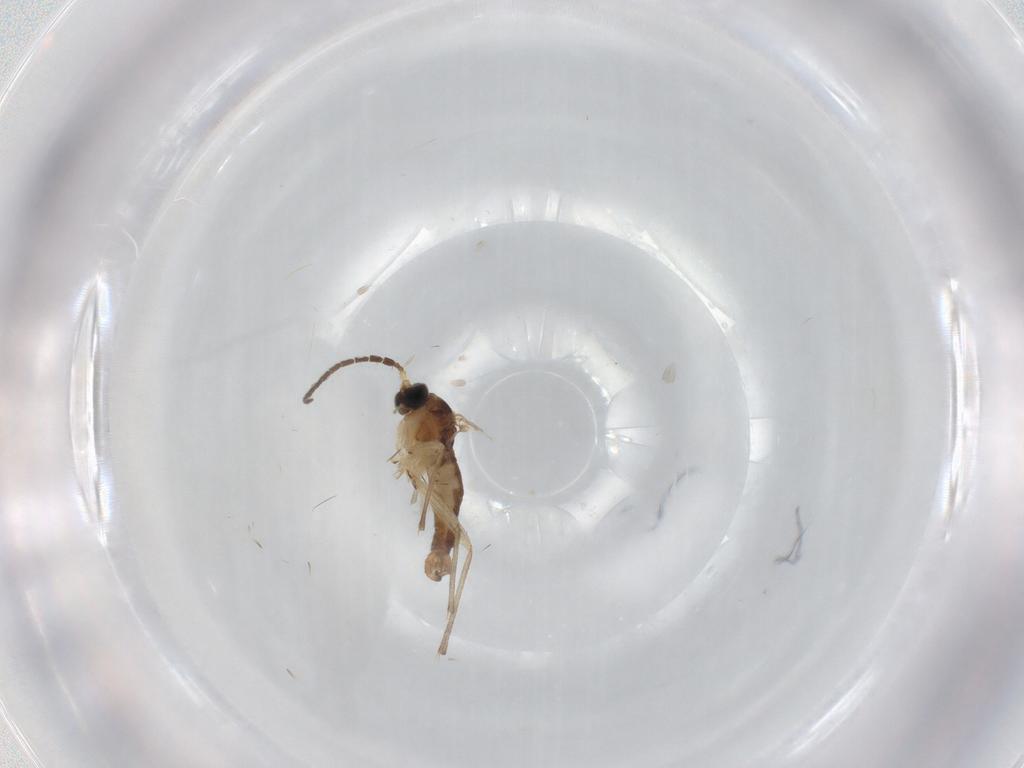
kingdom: Animalia
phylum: Arthropoda
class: Insecta
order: Diptera
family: Sciaridae
